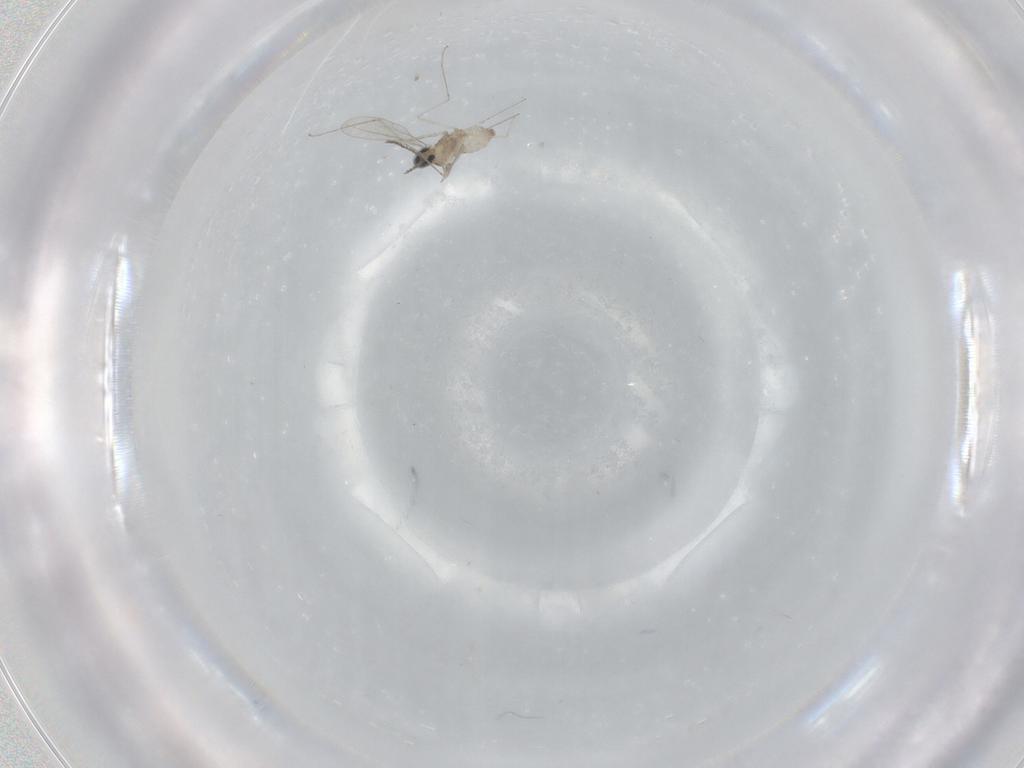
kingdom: Animalia
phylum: Arthropoda
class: Insecta
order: Diptera
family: Cecidomyiidae
